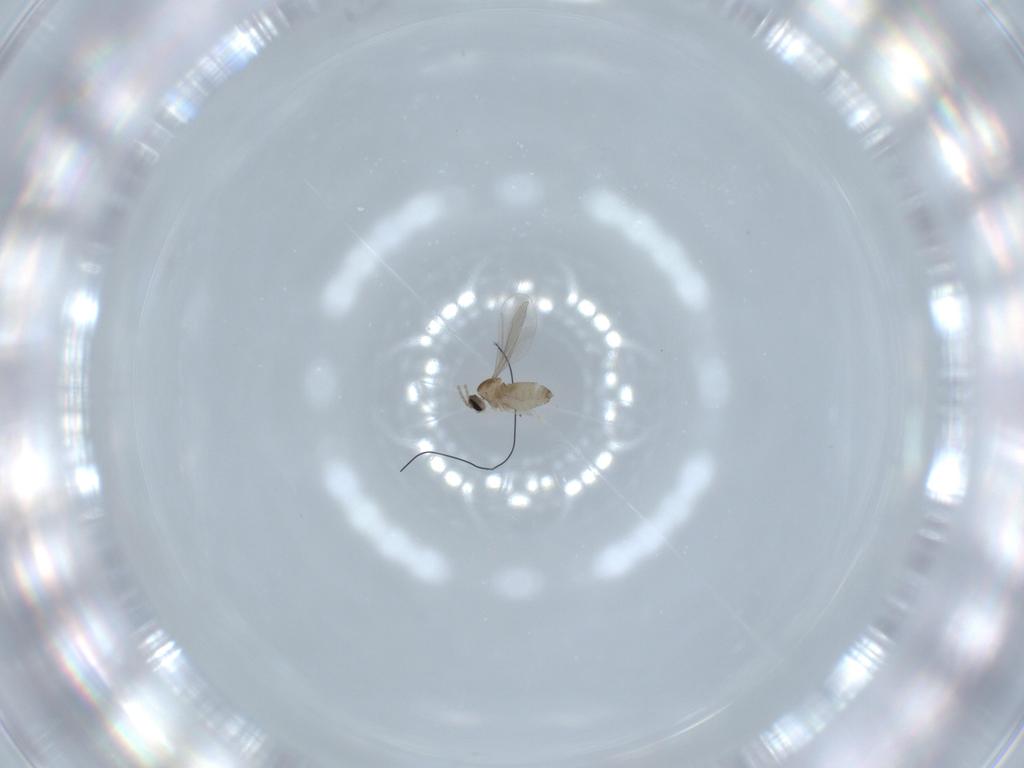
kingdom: Animalia
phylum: Arthropoda
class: Insecta
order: Diptera
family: Cecidomyiidae
